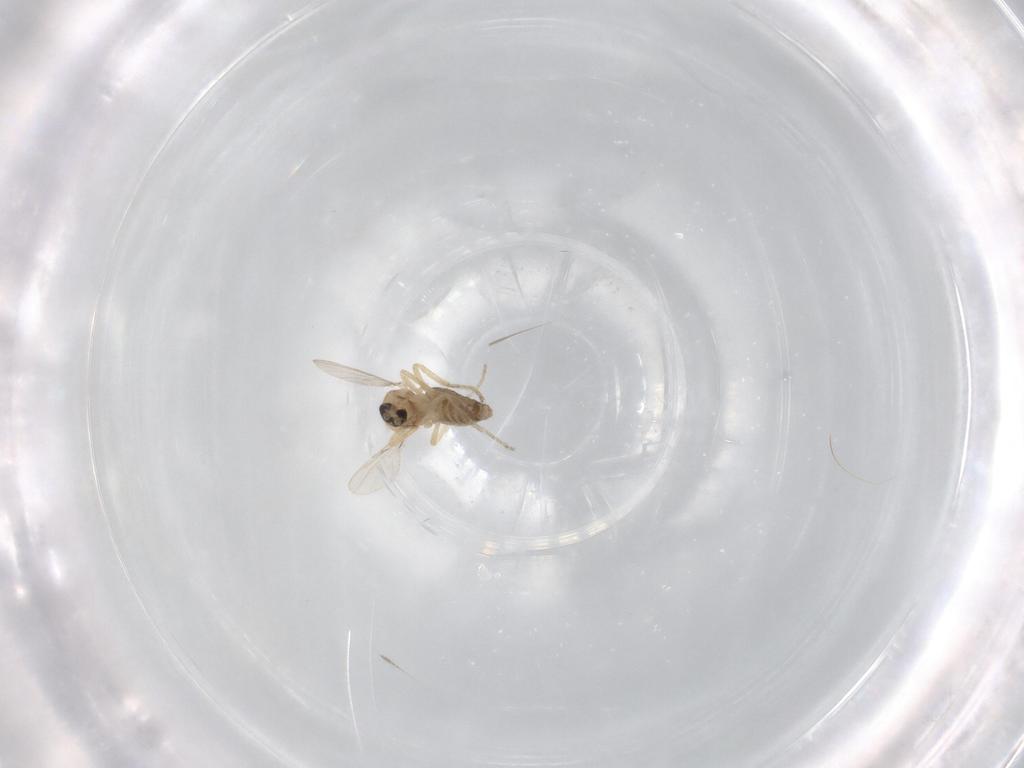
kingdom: Animalia
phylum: Arthropoda
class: Insecta
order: Diptera
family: Ceratopogonidae
